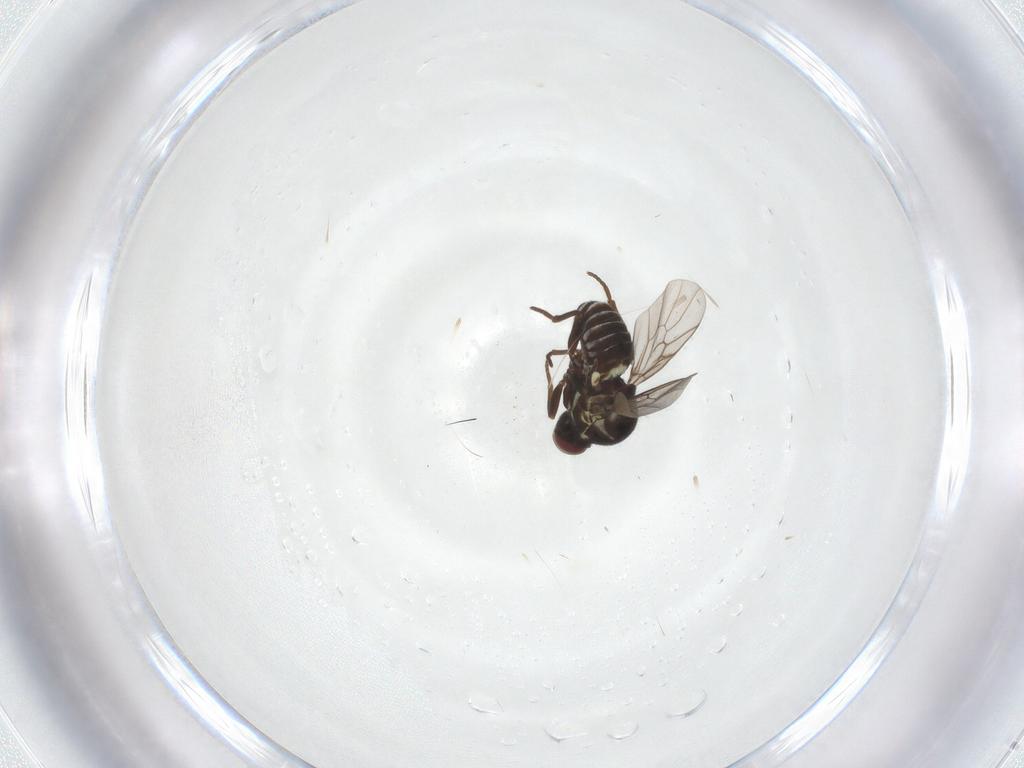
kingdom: Animalia
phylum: Arthropoda
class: Insecta
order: Diptera
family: Mythicomyiidae
